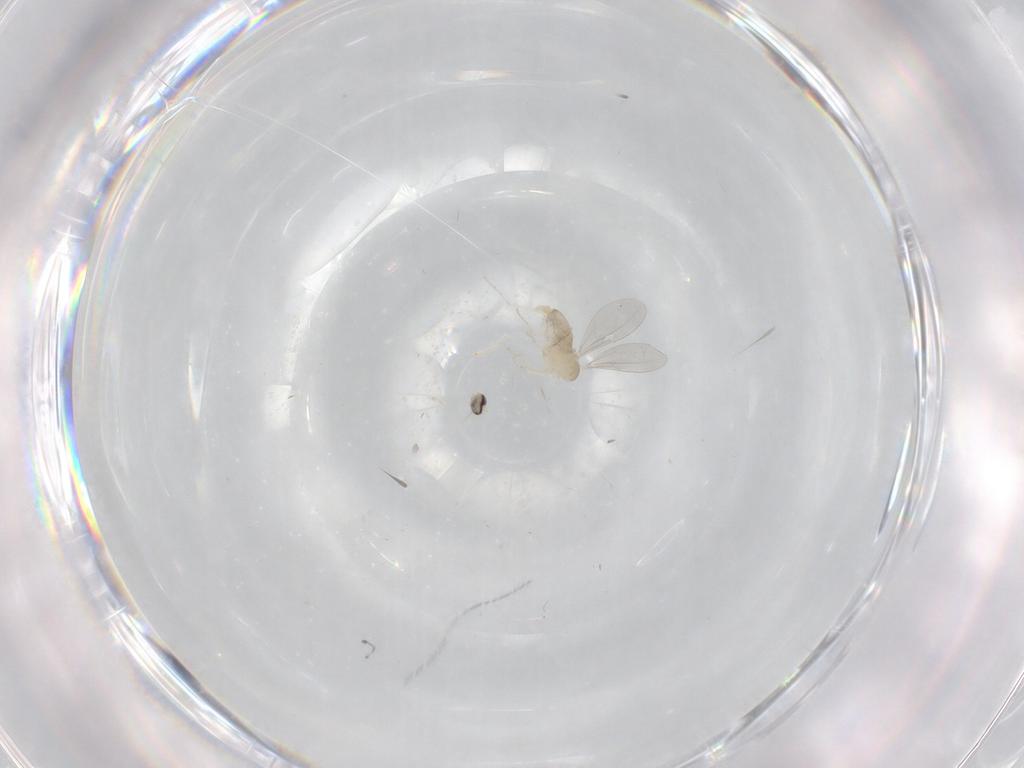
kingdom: Animalia
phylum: Arthropoda
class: Insecta
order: Diptera
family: Cecidomyiidae
